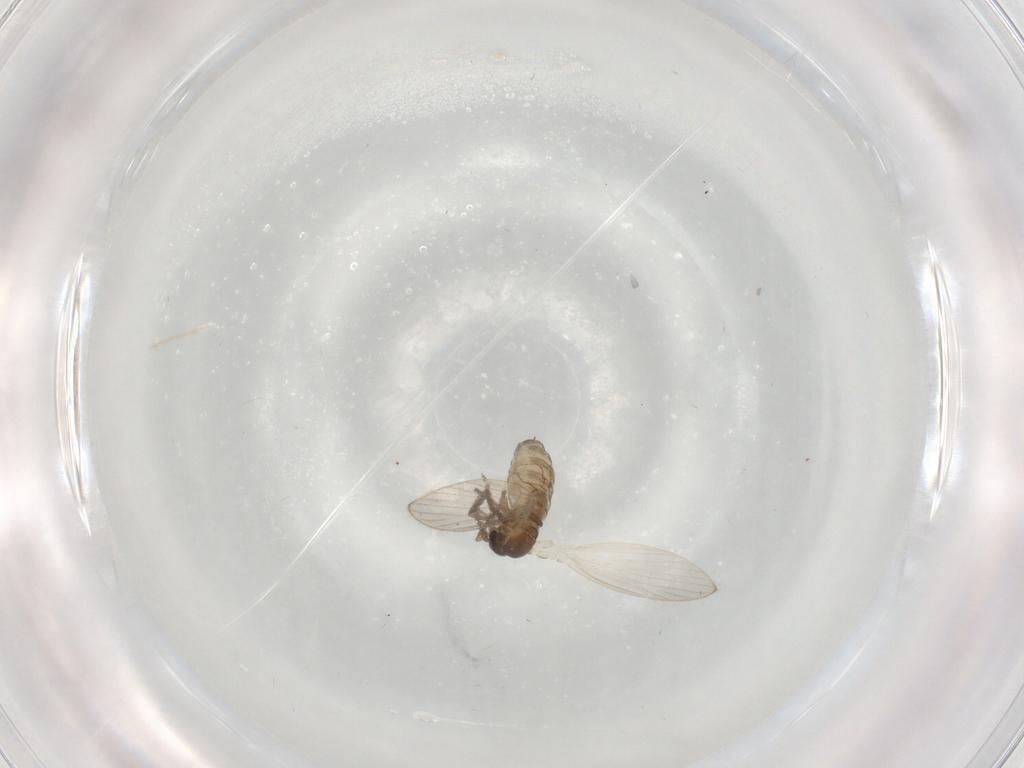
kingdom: Animalia
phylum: Arthropoda
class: Insecta
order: Diptera
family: Psychodidae
